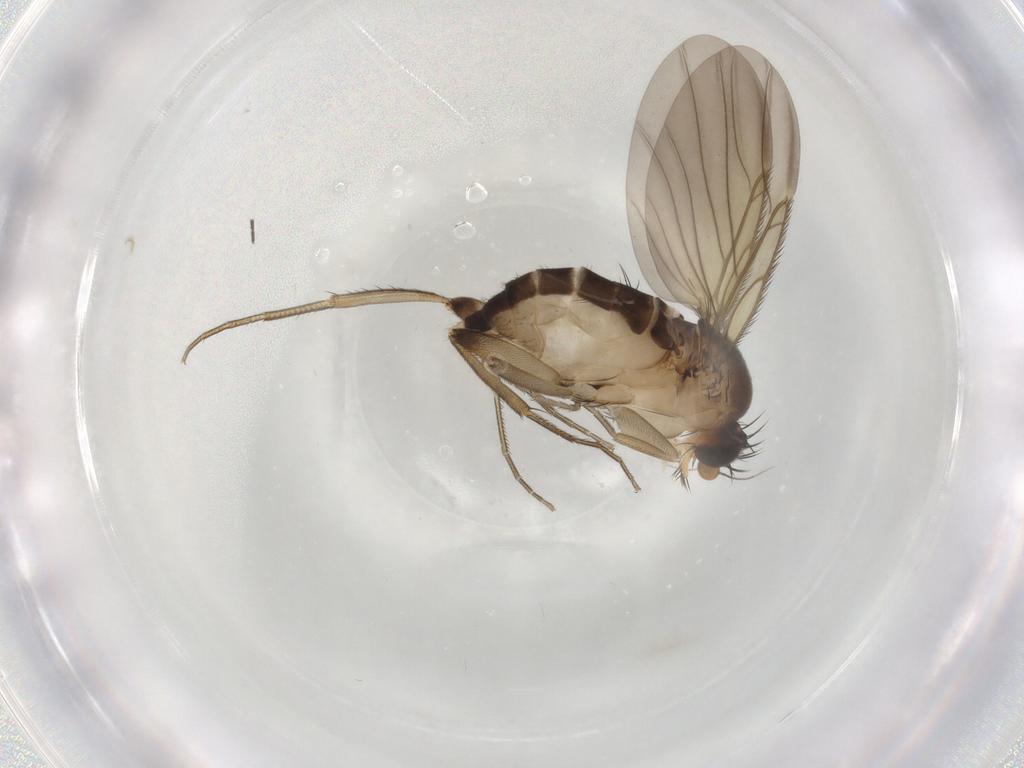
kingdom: Animalia
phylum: Arthropoda
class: Insecta
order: Diptera
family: Phoridae
